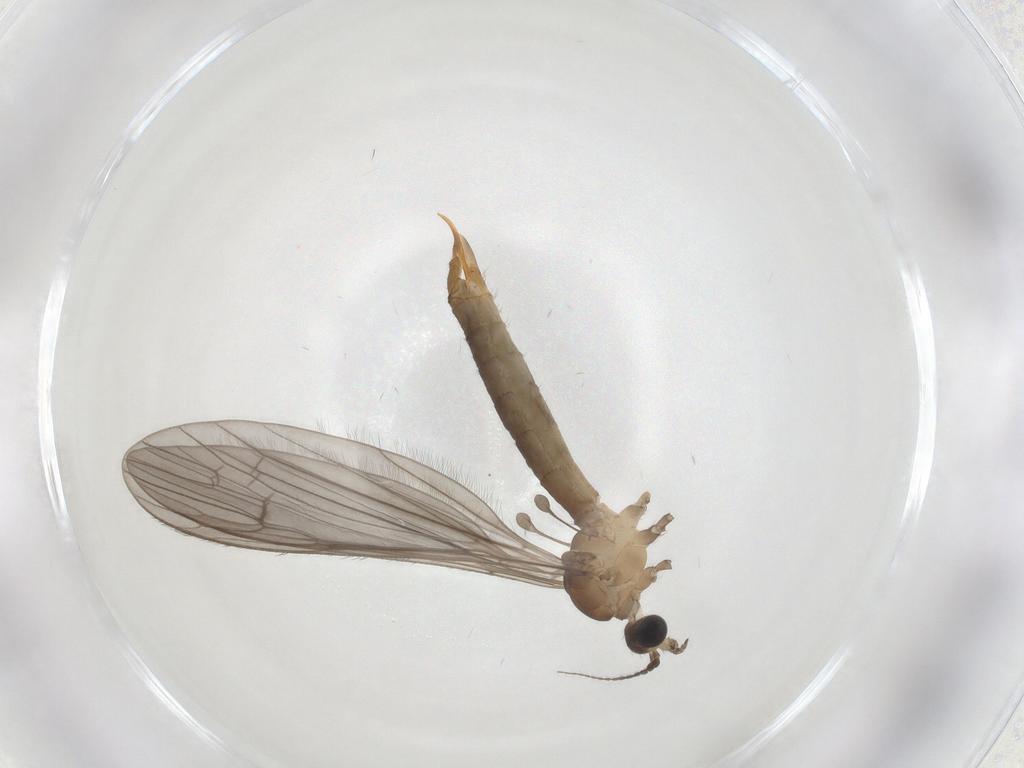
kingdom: Animalia
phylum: Arthropoda
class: Insecta
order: Diptera
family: Limoniidae
